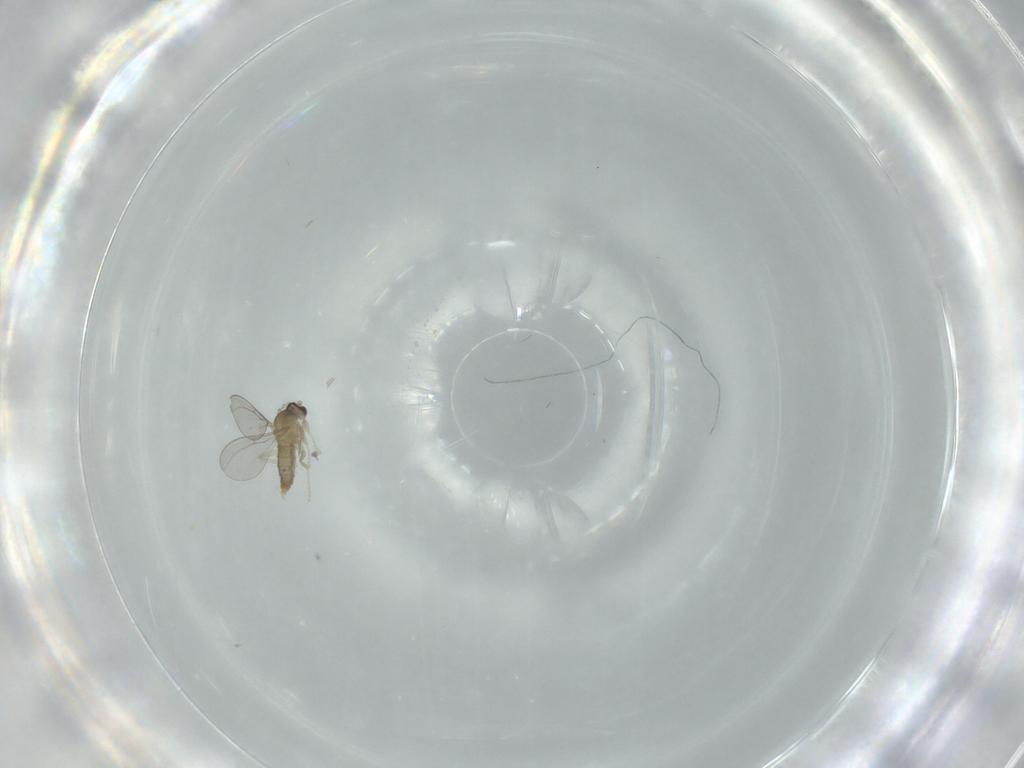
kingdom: Animalia
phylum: Arthropoda
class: Insecta
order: Diptera
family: Cecidomyiidae
